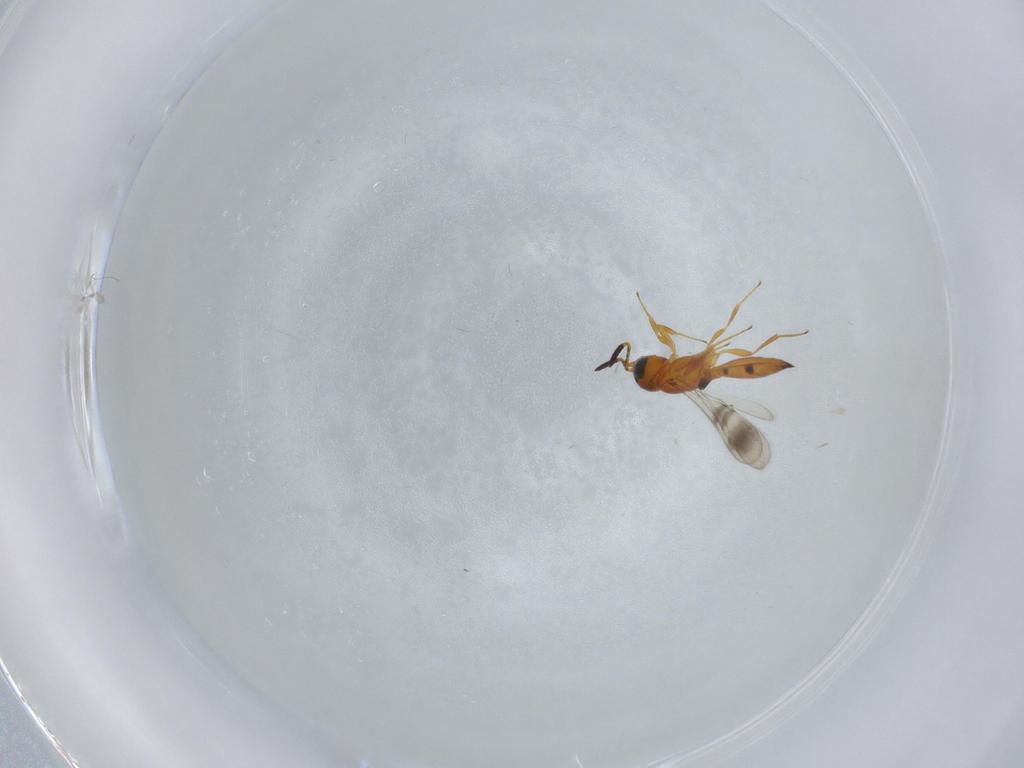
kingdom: Animalia
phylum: Arthropoda
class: Insecta
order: Hymenoptera
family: Scelionidae
